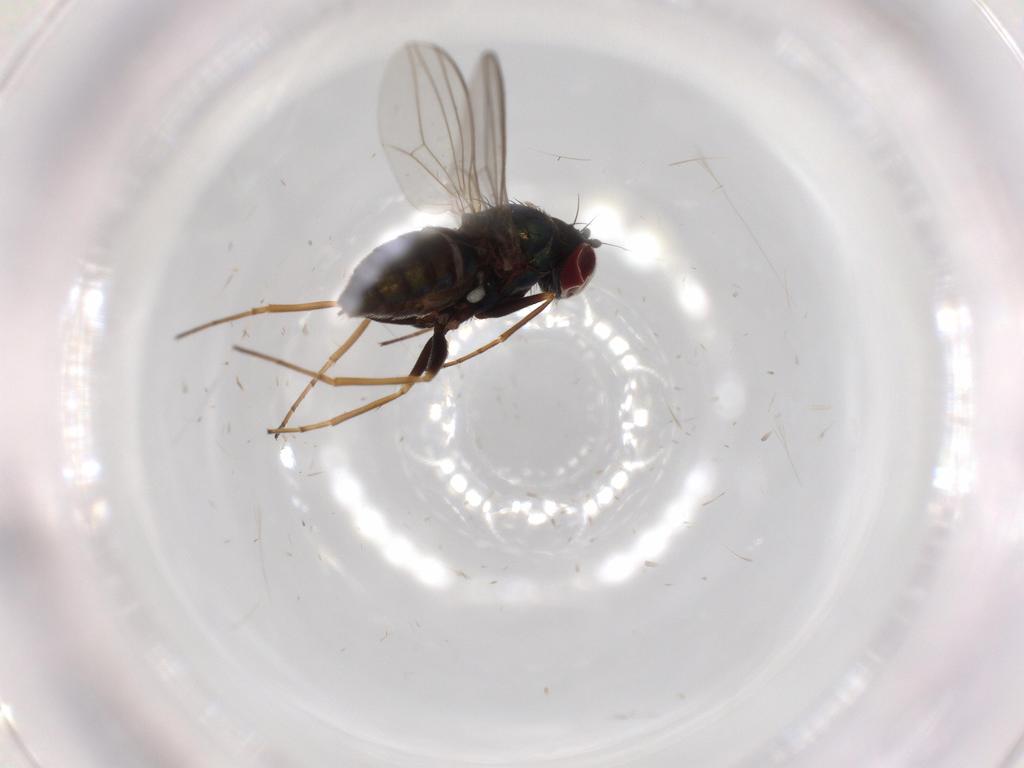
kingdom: Animalia
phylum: Arthropoda
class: Insecta
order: Diptera
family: Dolichopodidae
